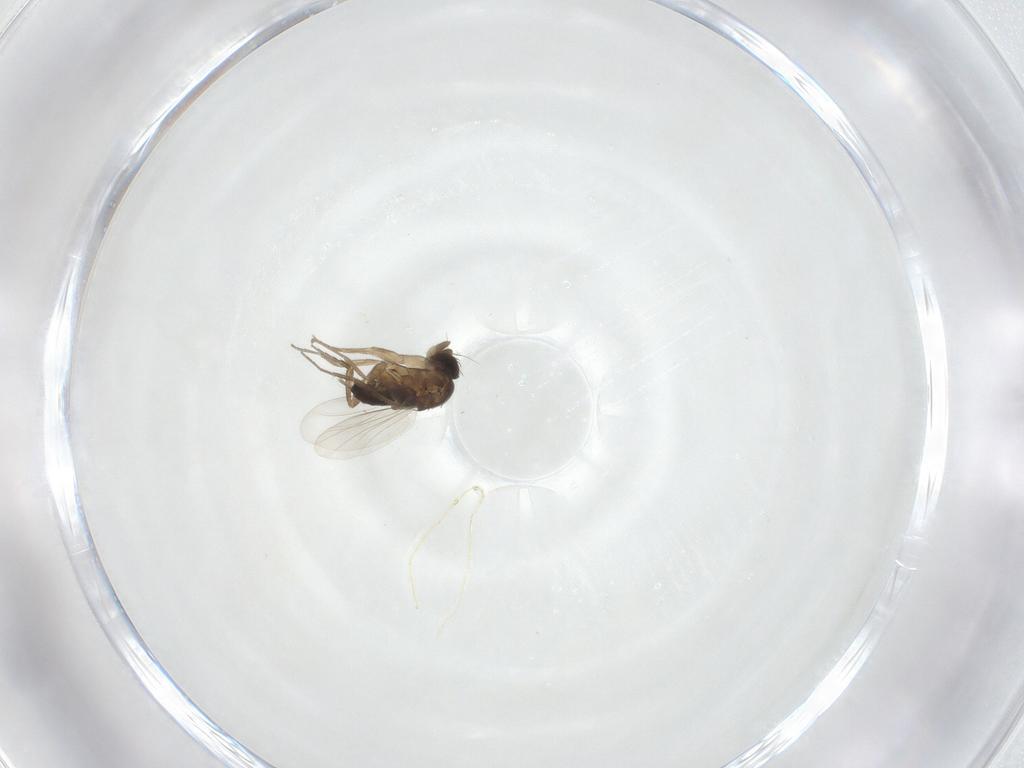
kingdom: Animalia
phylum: Arthropoda
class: Insecta
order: Diptera
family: Phoridae
